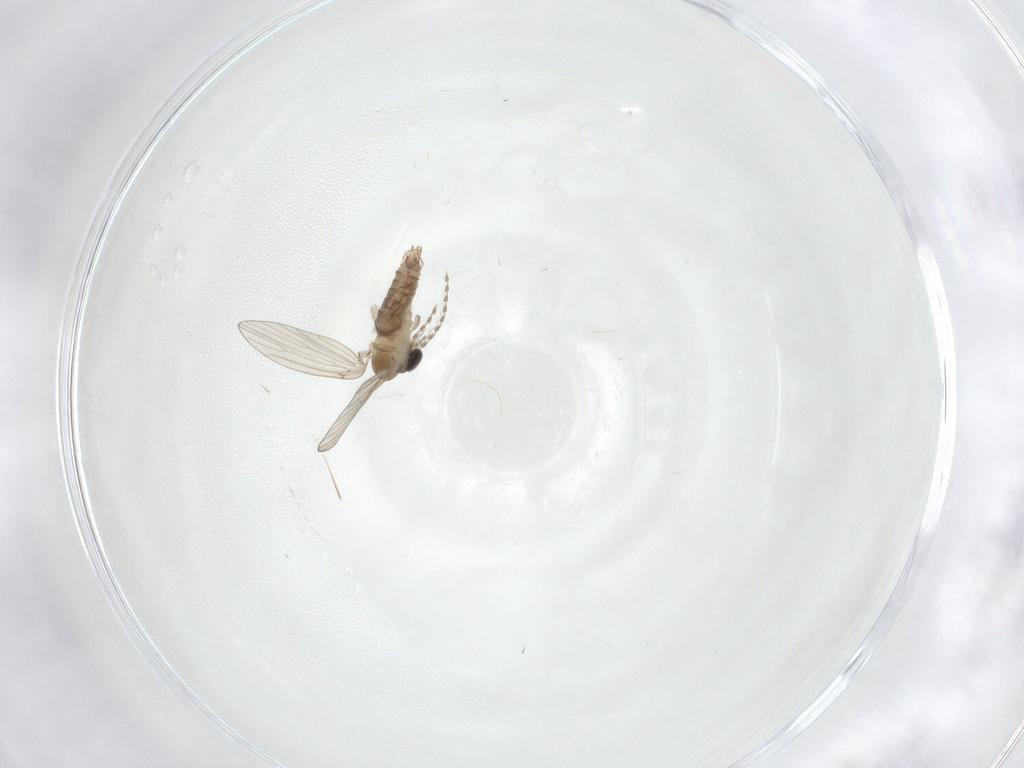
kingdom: Animalia
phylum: Arthropoda
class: Insecta
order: Diptera
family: Psychodidae
